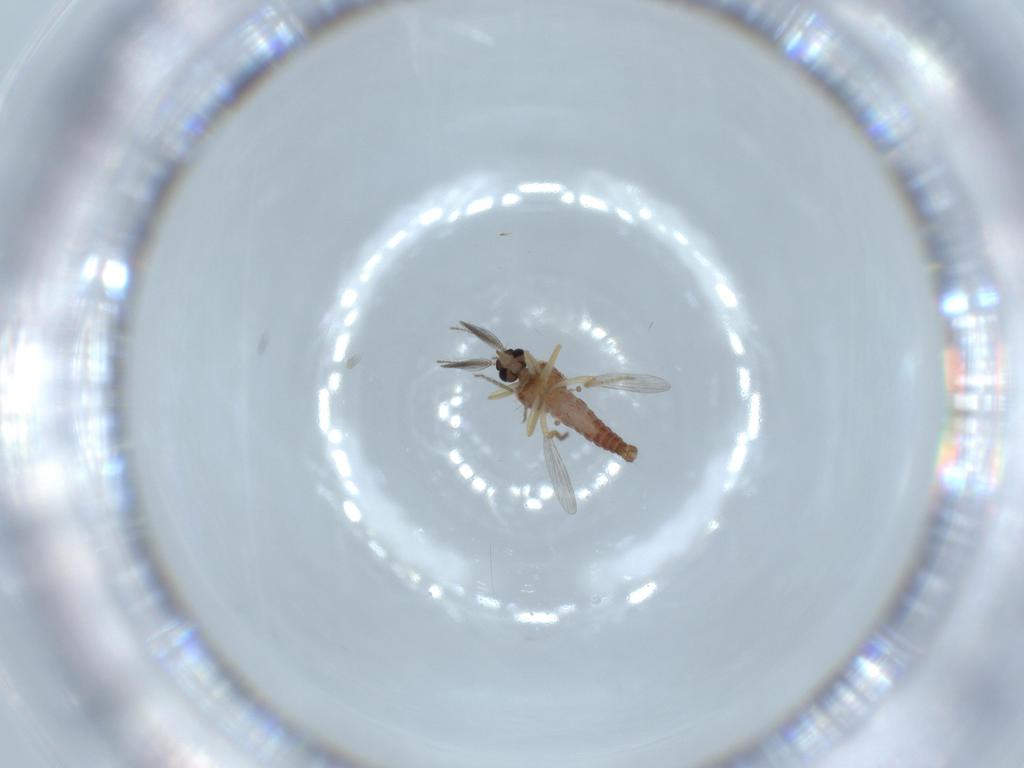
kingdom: Animalia
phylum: Arthropoda
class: Insecta
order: Diptera
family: Ceratopogonidae
